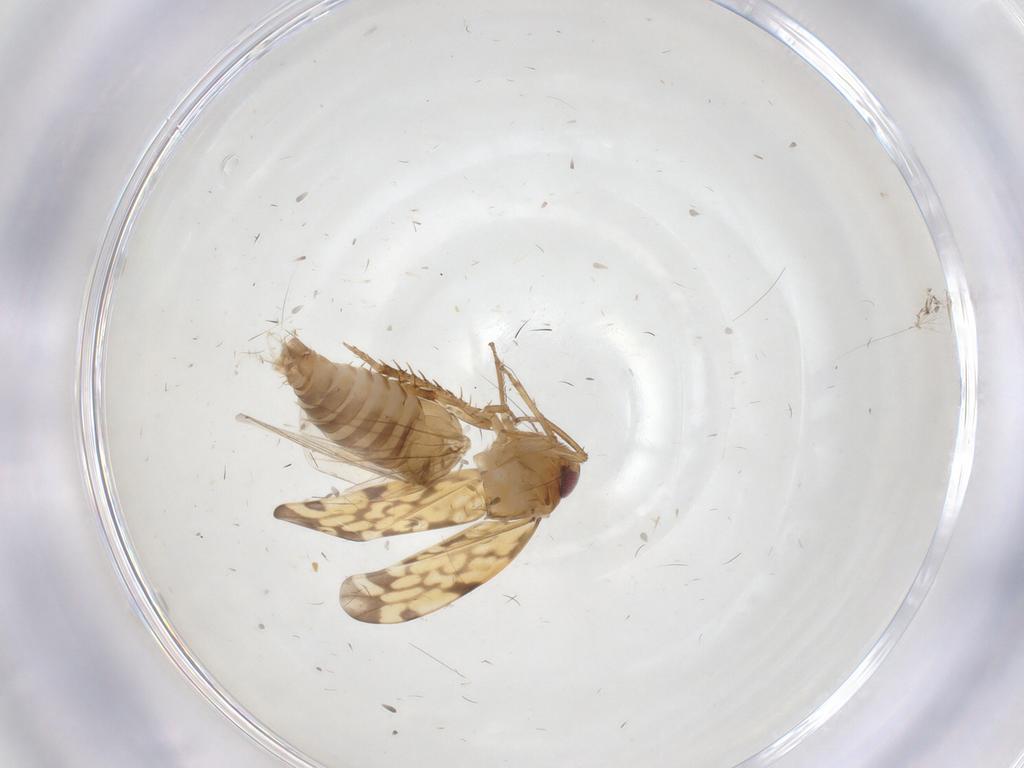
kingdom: Animalia
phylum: Arthropoda
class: Insecta
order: Hemiptera
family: Cicadellidae
